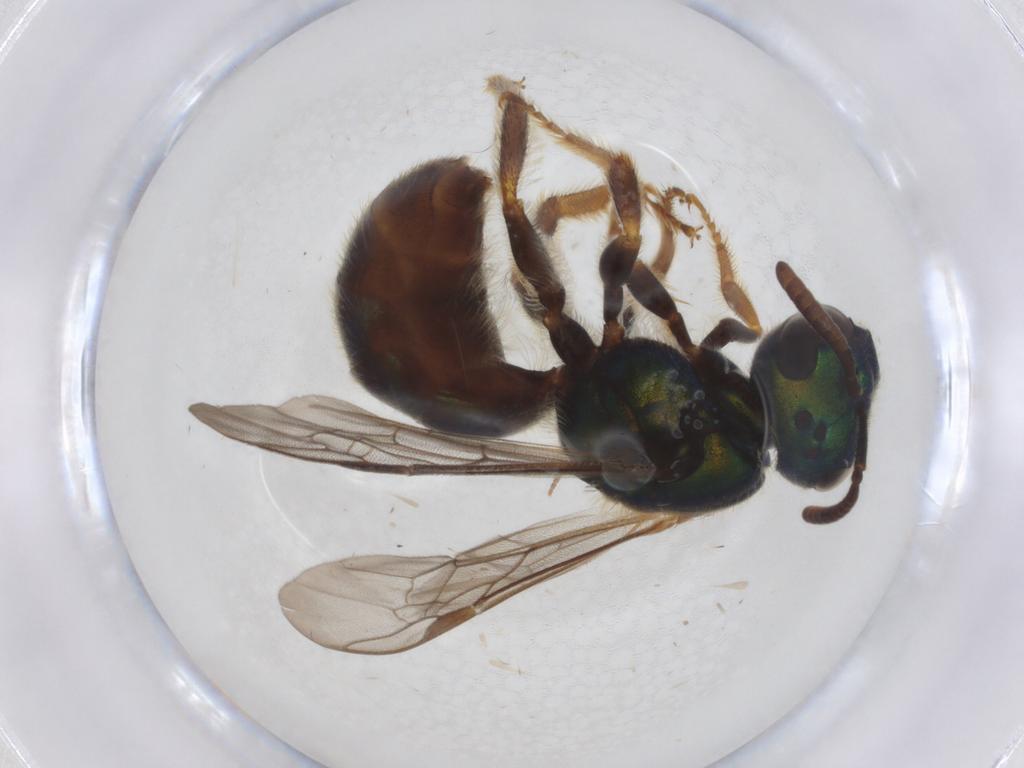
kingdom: Animalia
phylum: Arthropoda
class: Insecta
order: Hymenoptera
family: Halictidae
